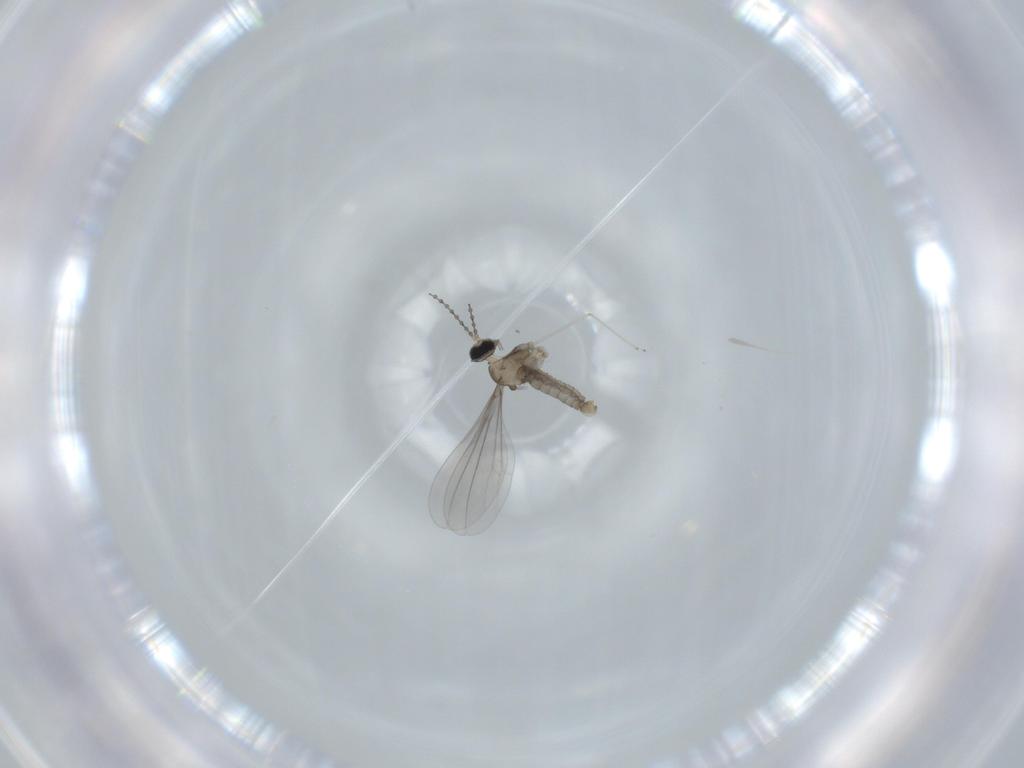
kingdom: Animalia
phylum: Arthropoda
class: Insecta
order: Diptera
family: Cecidomyiidae
